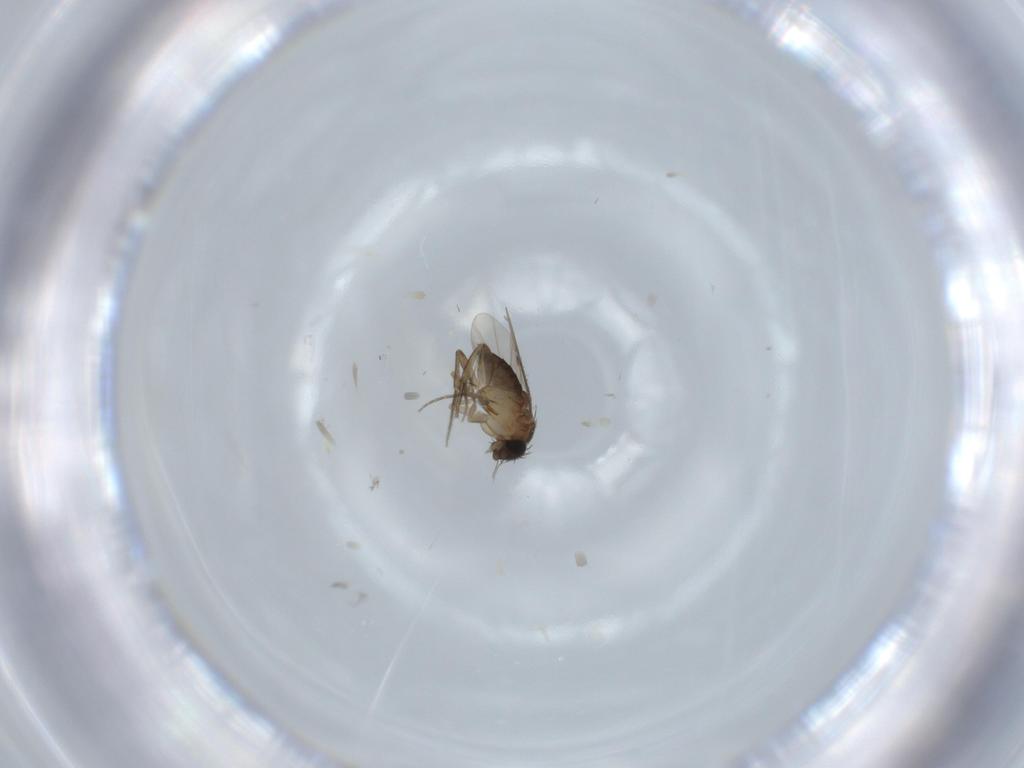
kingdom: Animalia
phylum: Arthropoda
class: Insecta
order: Diptera
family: Phoridae
